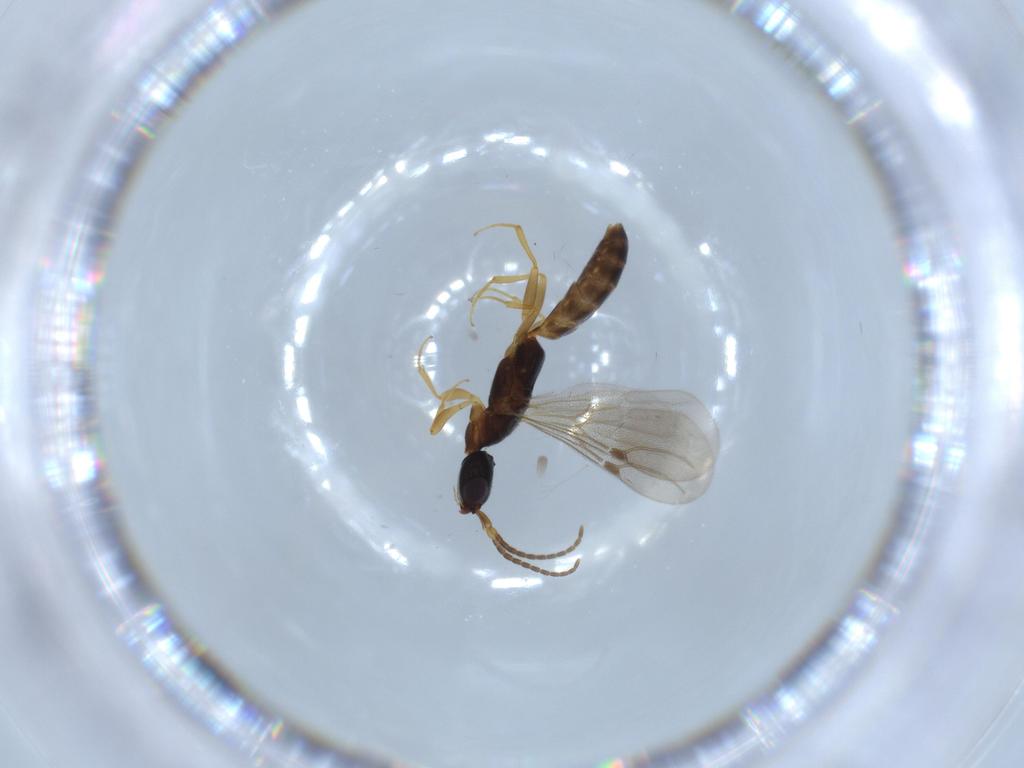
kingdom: Animalia
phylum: Arthropoda
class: Insecta
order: Hymenoptera
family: Bethylidae
